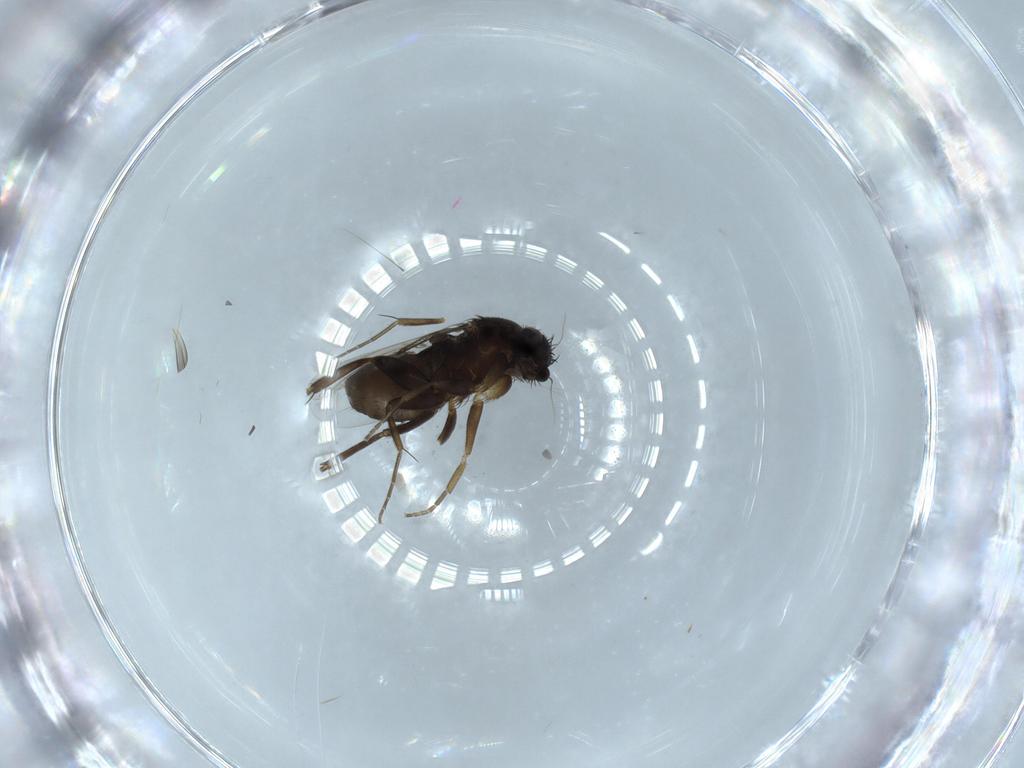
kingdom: Animalia
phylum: Arthropoda
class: Insecta
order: Diptera
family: Phoridae
